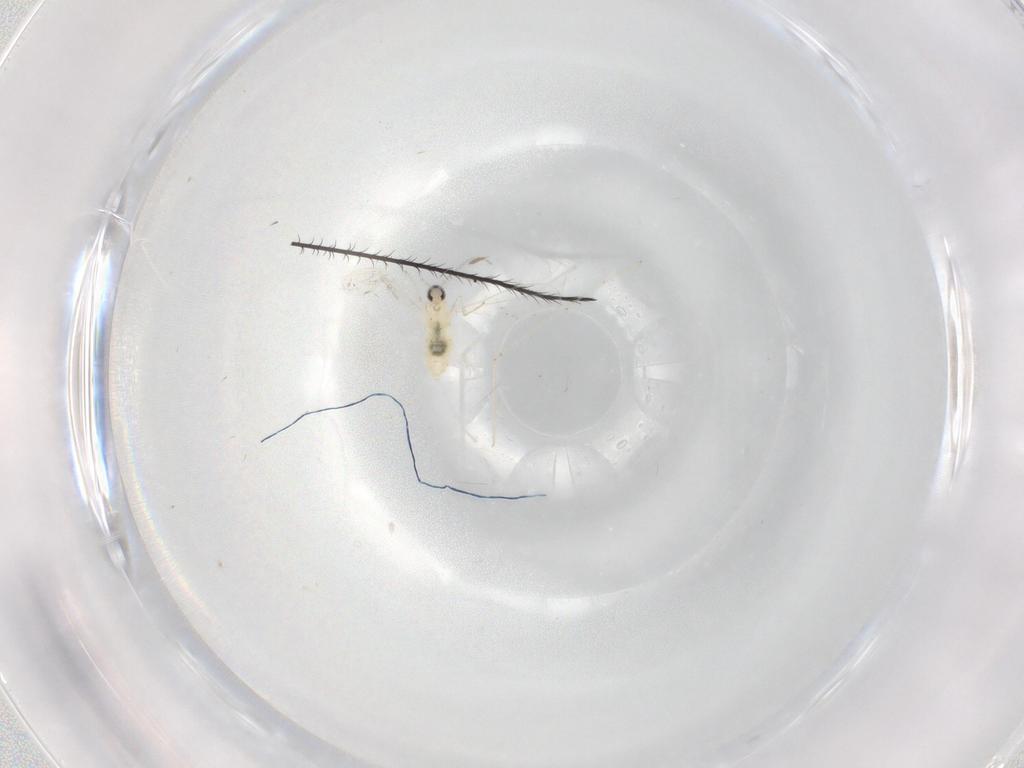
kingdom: Animalia
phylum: Arthropoda
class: Insecta
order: Diptera
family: Cecidomyiidae
